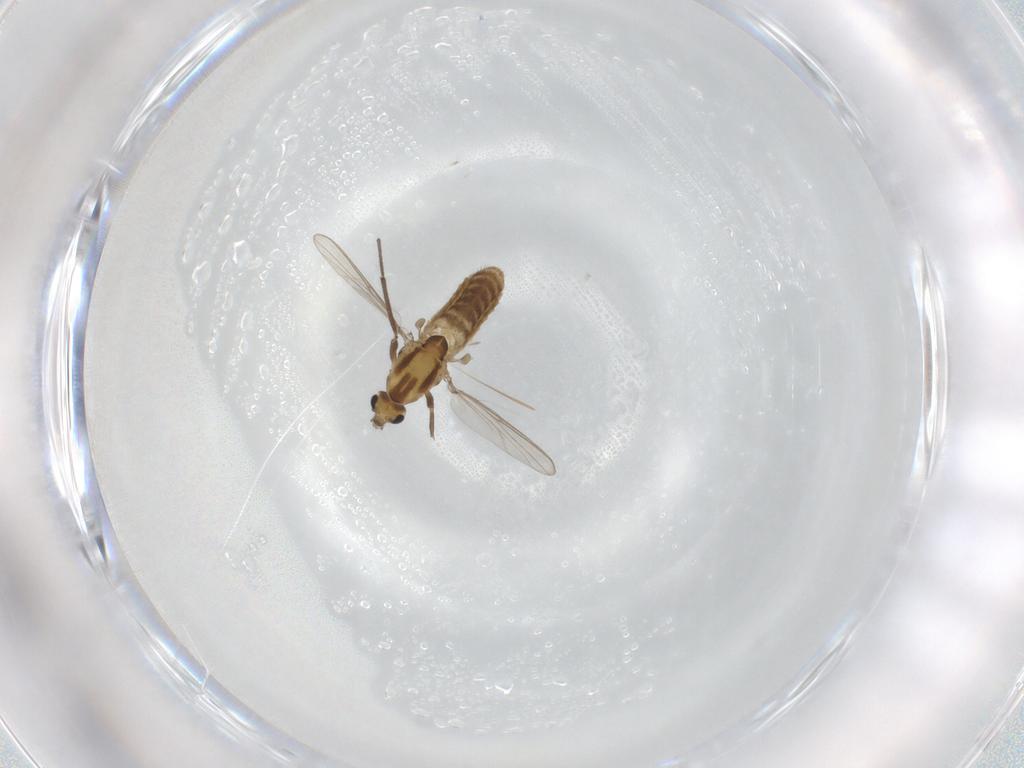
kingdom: Animalia
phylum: Arthropoda
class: Insecta
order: Diptera
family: Chironomidae
